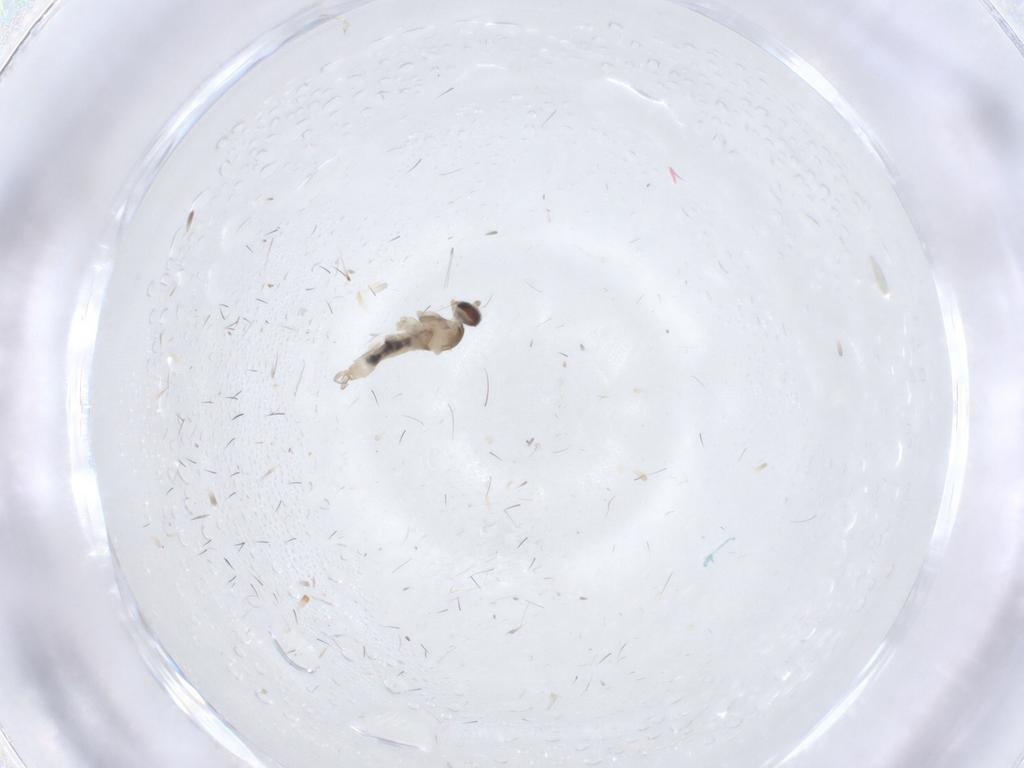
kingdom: Animalia
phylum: Arthropoda
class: Insecta
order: Diptera
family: Cecidomyiidae
